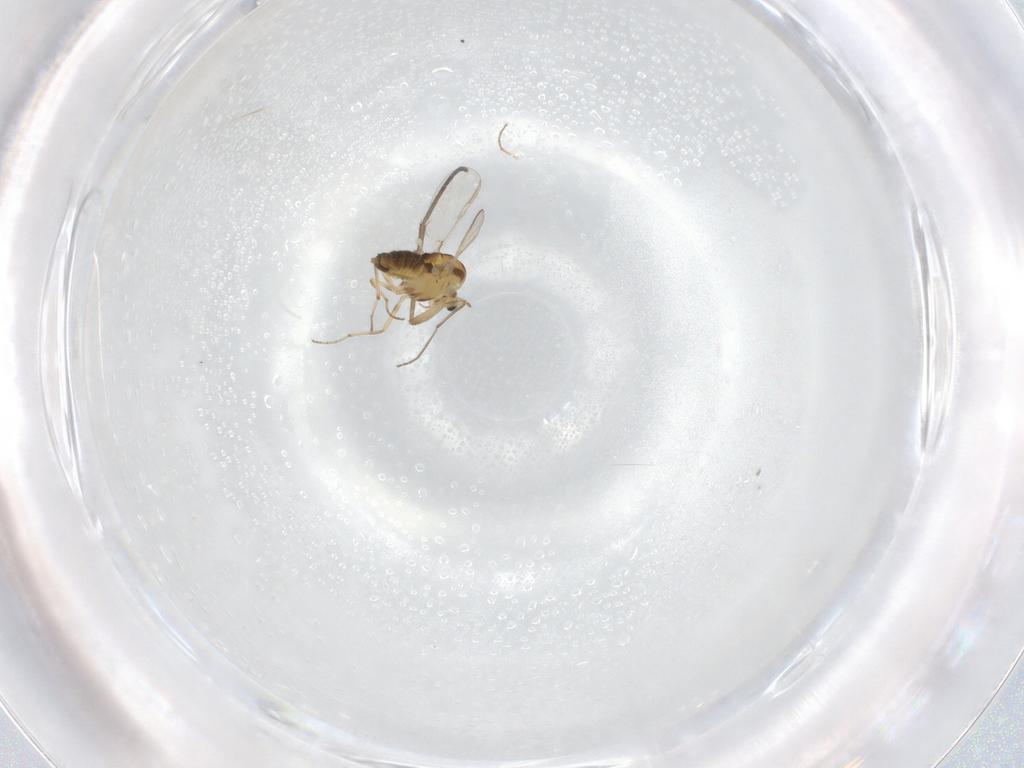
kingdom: Animalia
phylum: Arthropoda
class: Insecta
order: Diptera
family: Chironomidae
